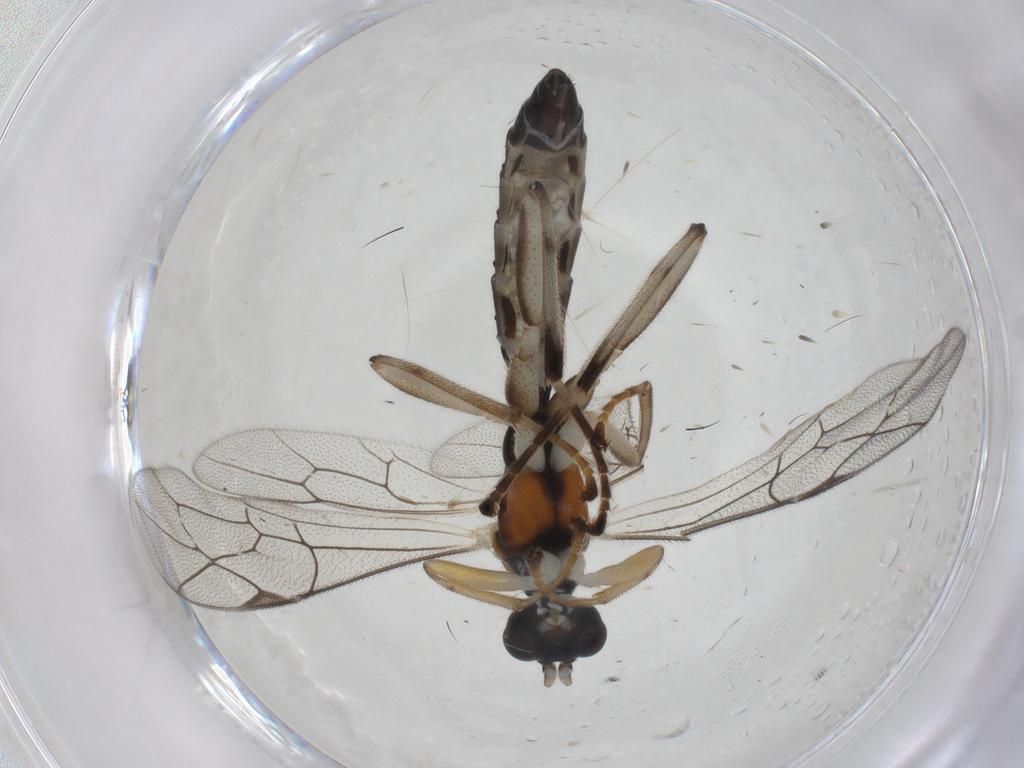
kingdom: Animalia
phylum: Arthropoda
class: Insecta
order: Hymenoptera
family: Ichneumonidae
